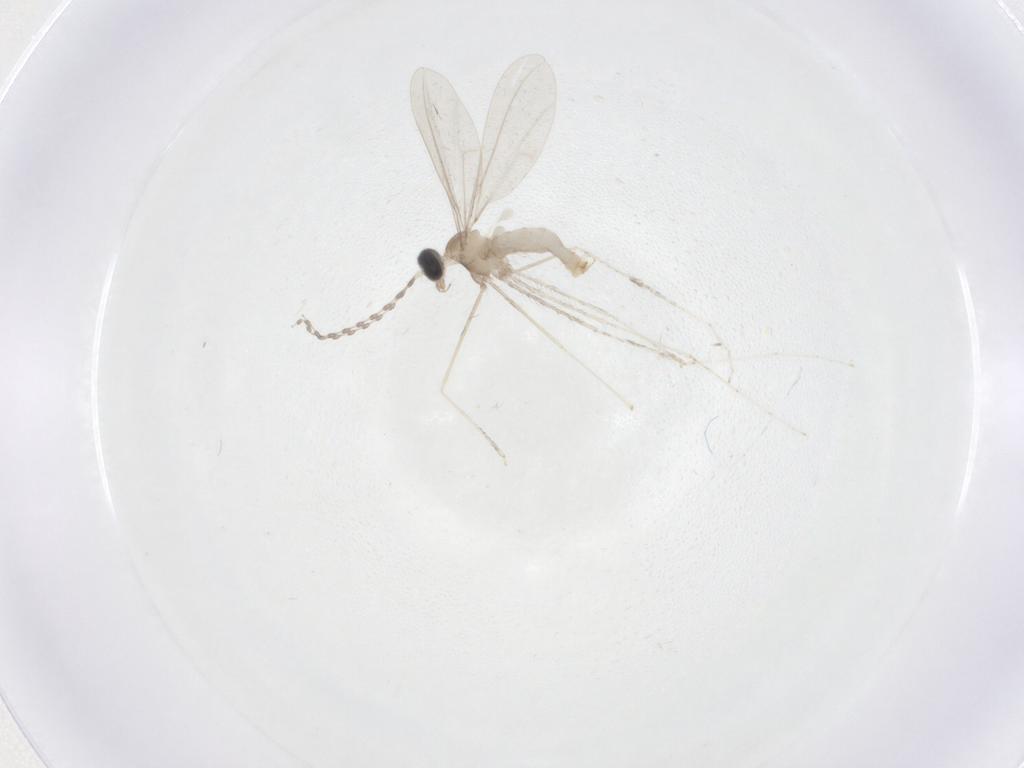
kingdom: Animalia
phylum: Arthropoda
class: Insecta
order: Diptera
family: Cecidomyiidae
